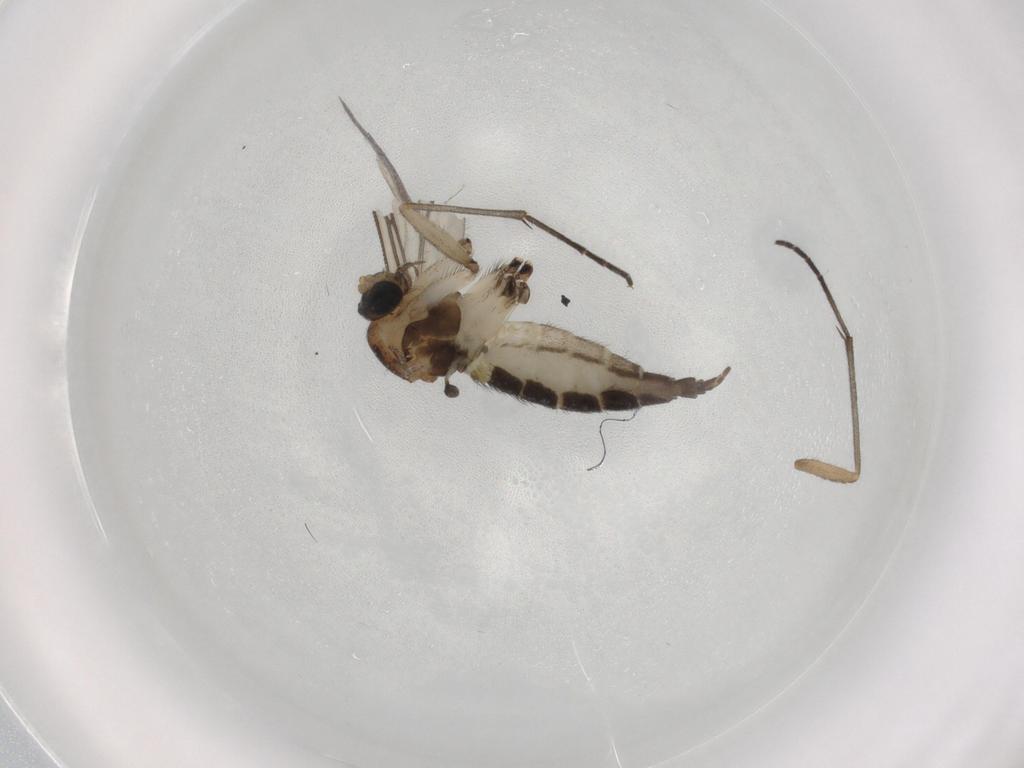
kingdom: Animalia
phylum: Arthropoda
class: Insecta
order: Diptera
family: Sciaridae
